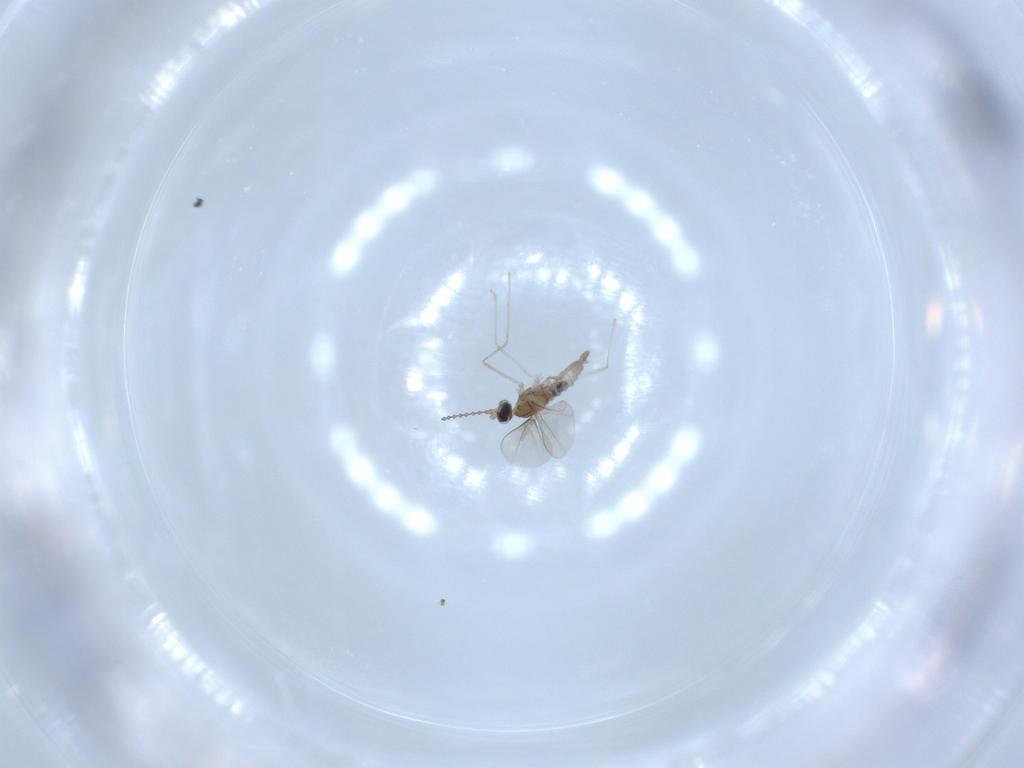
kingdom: Animalia
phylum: Arthropoda
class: Insecta
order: Diptera
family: Cecidomyiidae
